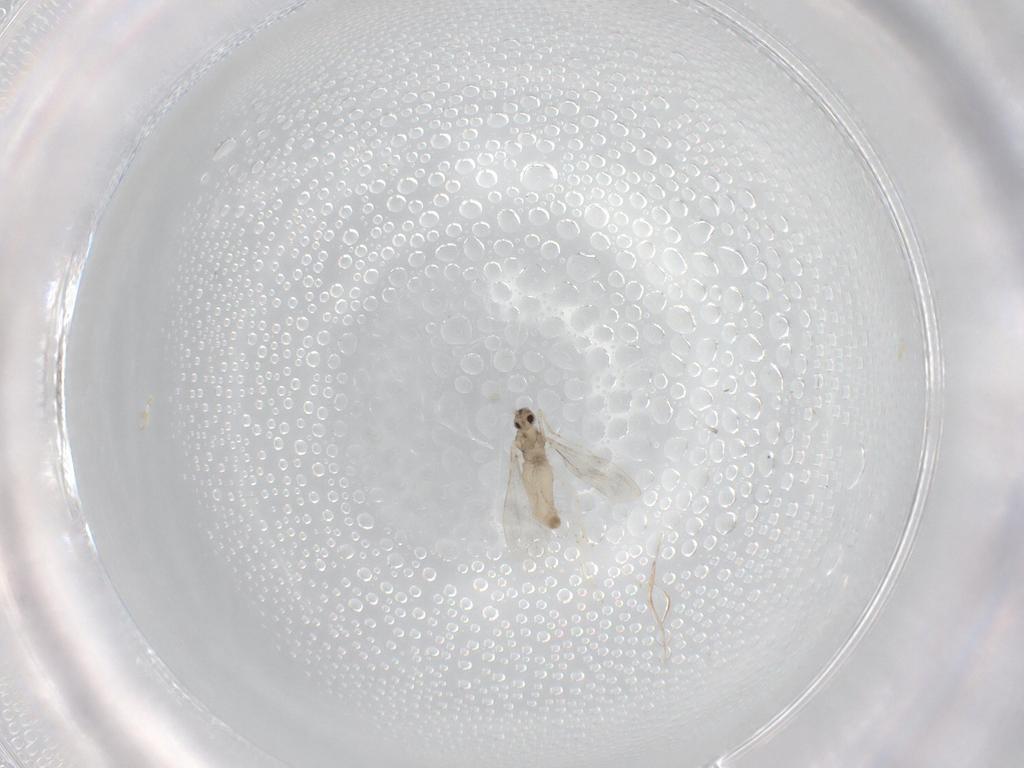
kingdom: Animalia
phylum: Arthropoda
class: Insecta
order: Diptera
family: Cecidomyiidae
